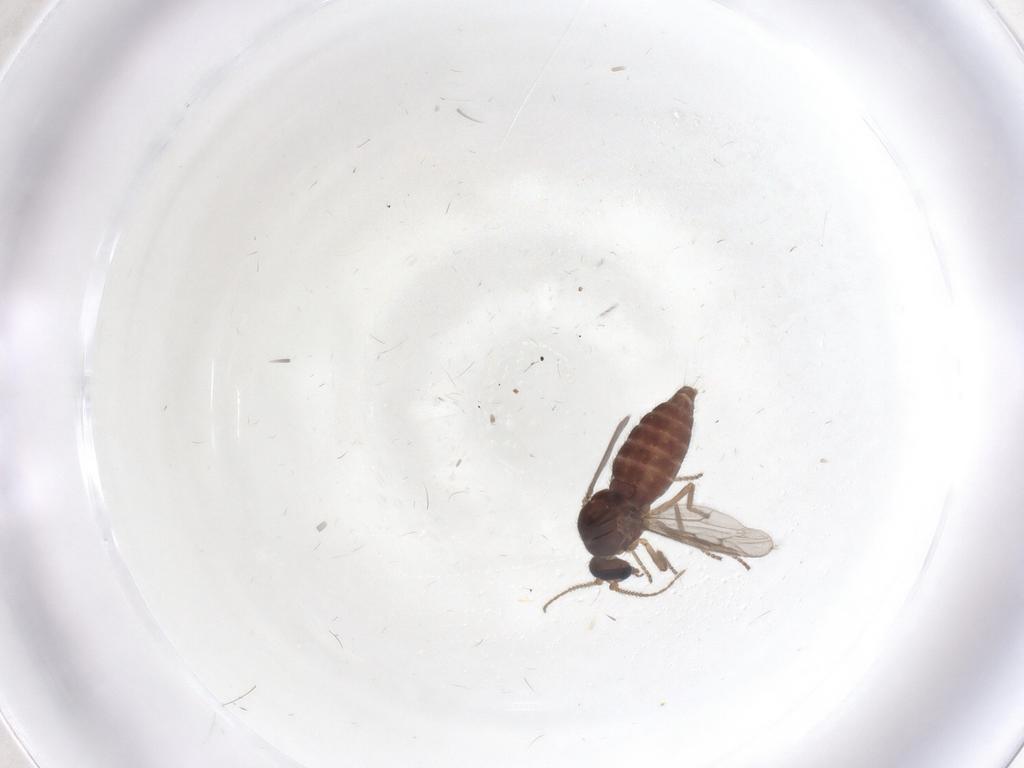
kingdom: Animalia
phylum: Arthropoda
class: Insecta
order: Diptera
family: Ceratopogonidae
